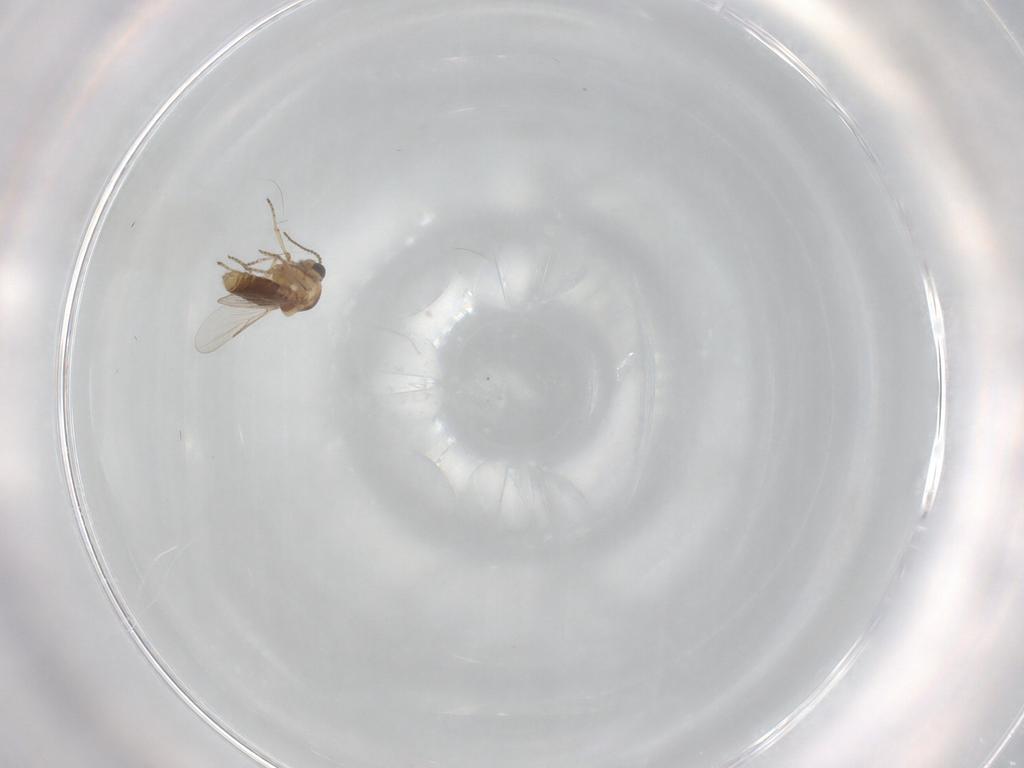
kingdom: Animalia
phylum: Arthropoda
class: Insecta
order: Diptera
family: Ceratopogonidae
